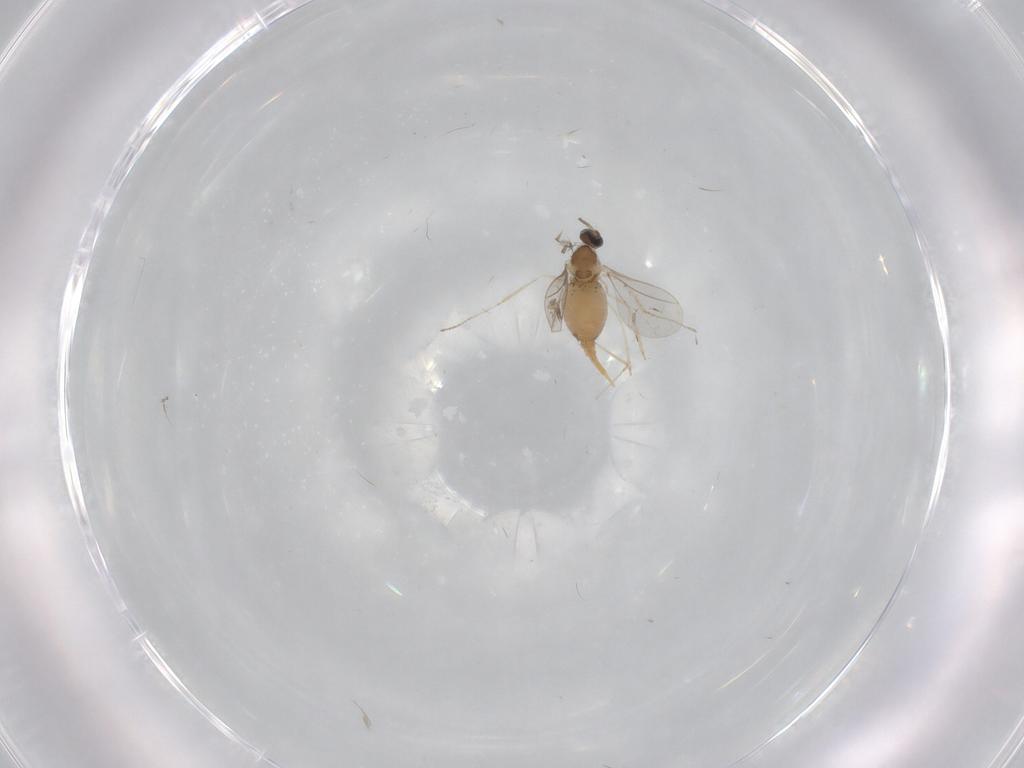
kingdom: Animalia
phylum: Arthropoda
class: Insecta
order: Diptera
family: Cecidomyiidae
